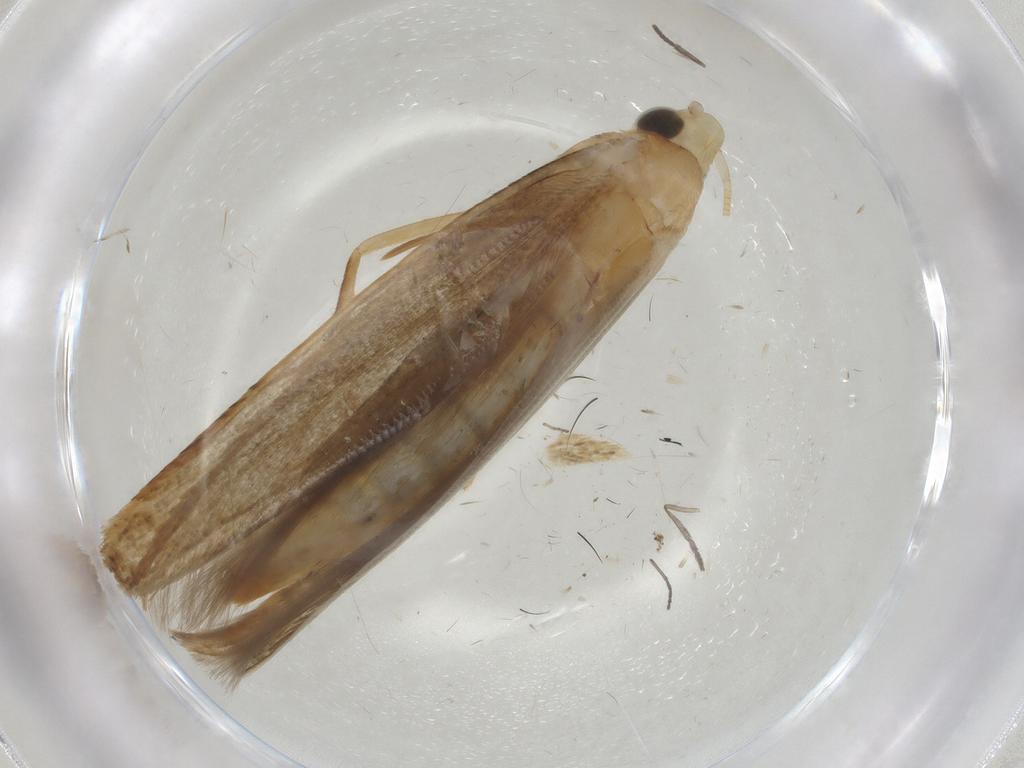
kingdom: Animalia
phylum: Arthropoda
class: Insecta
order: Lepidoptera
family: Tineidae
